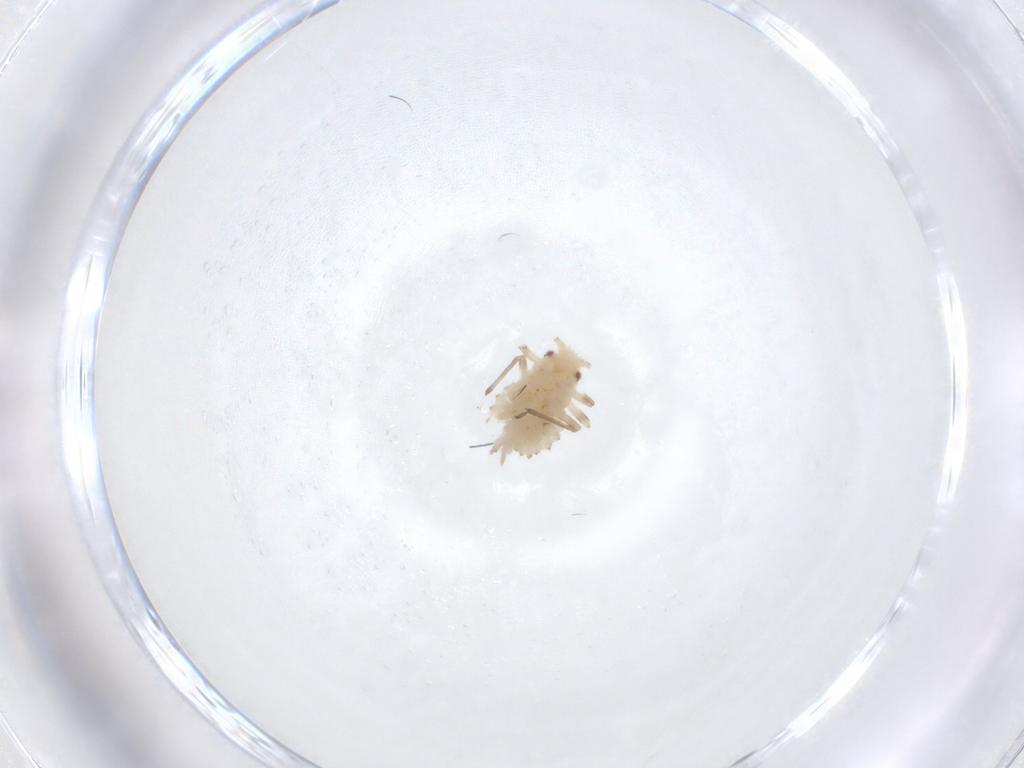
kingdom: Animalia
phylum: Arthropoda
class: Insecta
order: Hemiptera
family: Aphididae
